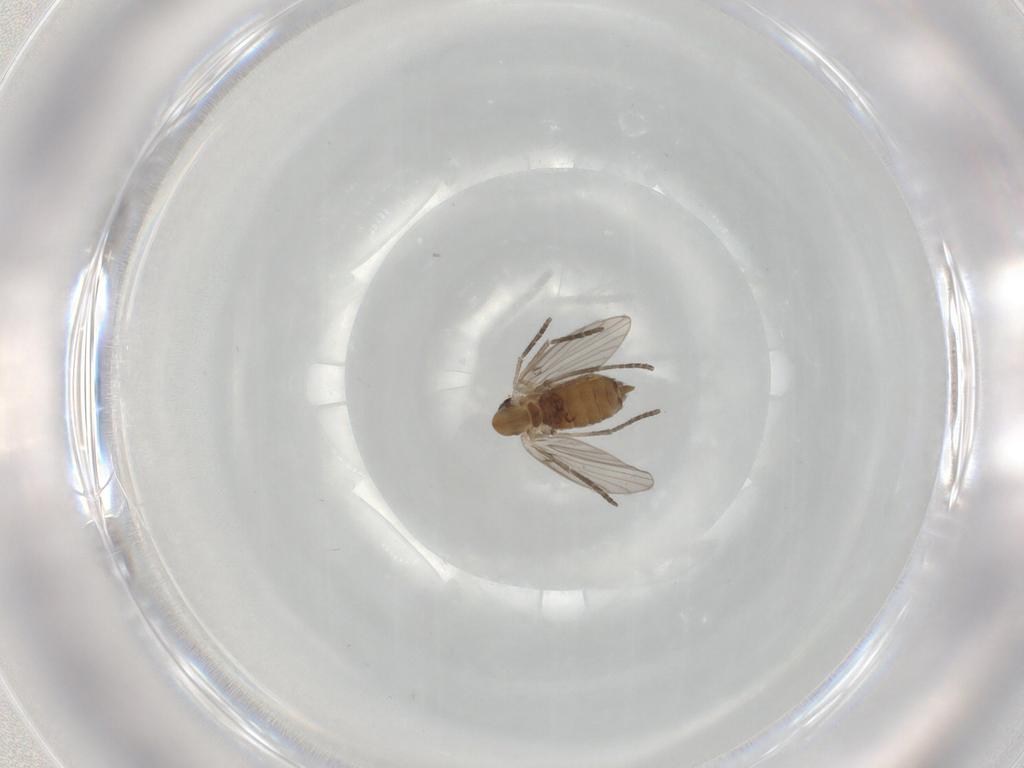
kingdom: Animalia
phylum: Arthropoda
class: Insecta
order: Diptera
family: Psychodidae
